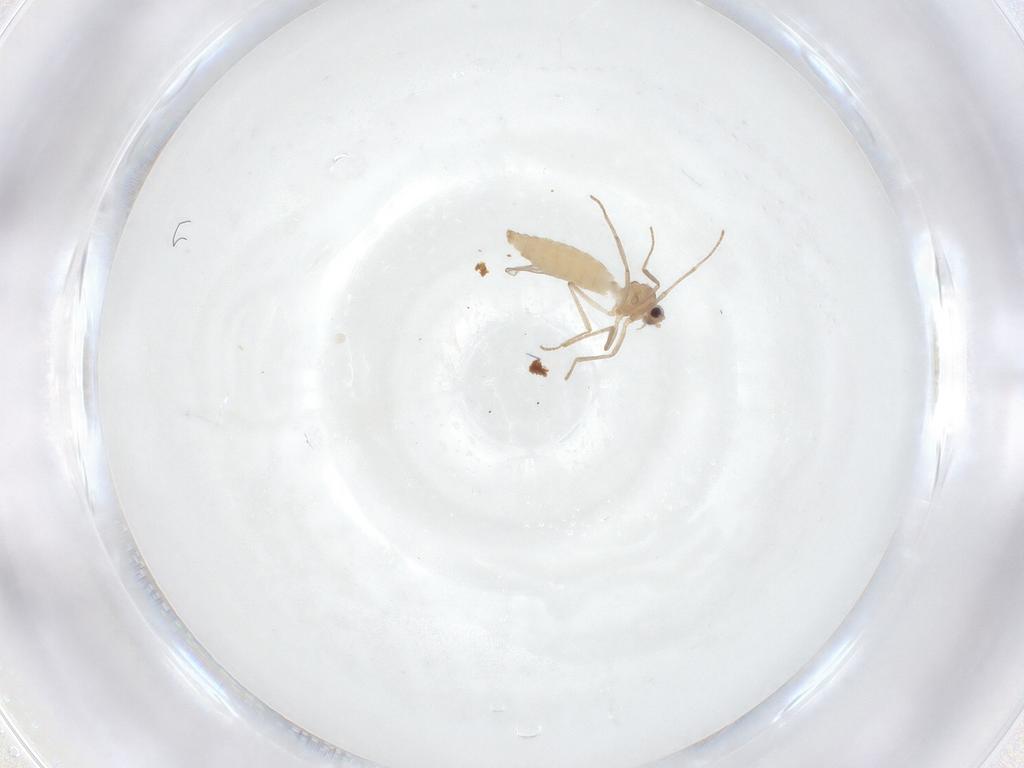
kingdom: Animalia
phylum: Arthropoda
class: Insecta
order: Diptera
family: Cecidomyiidae
